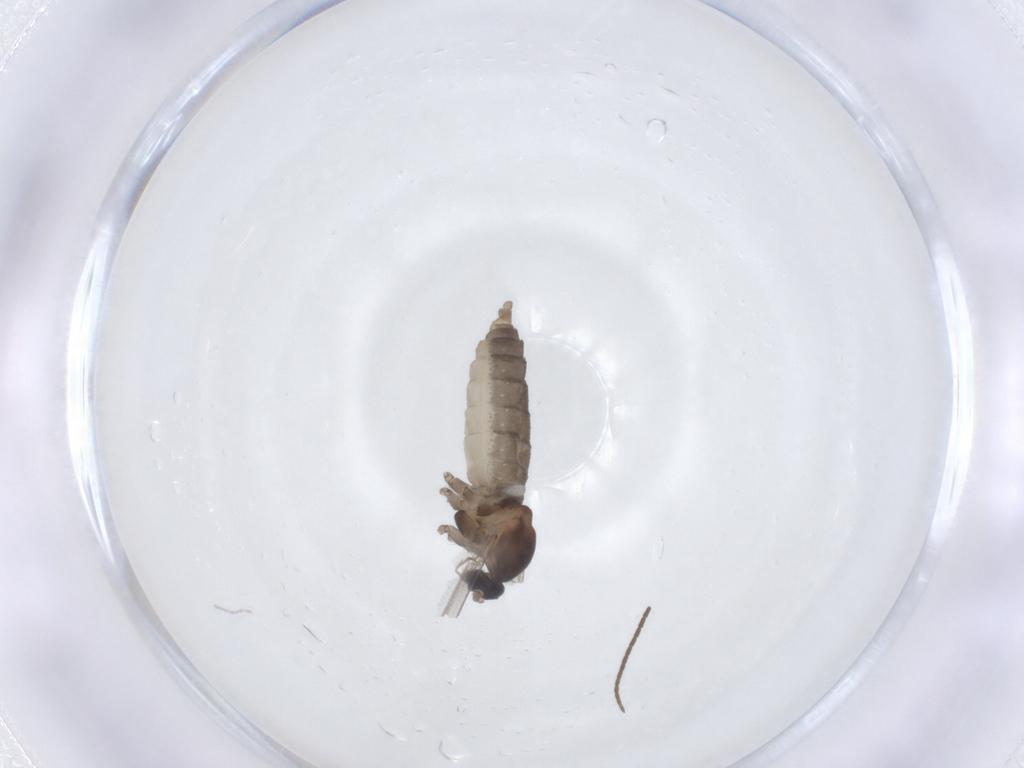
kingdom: Animalia
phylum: Arthropoda
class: Insecta
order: Diptera
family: Cecidomyiidae
